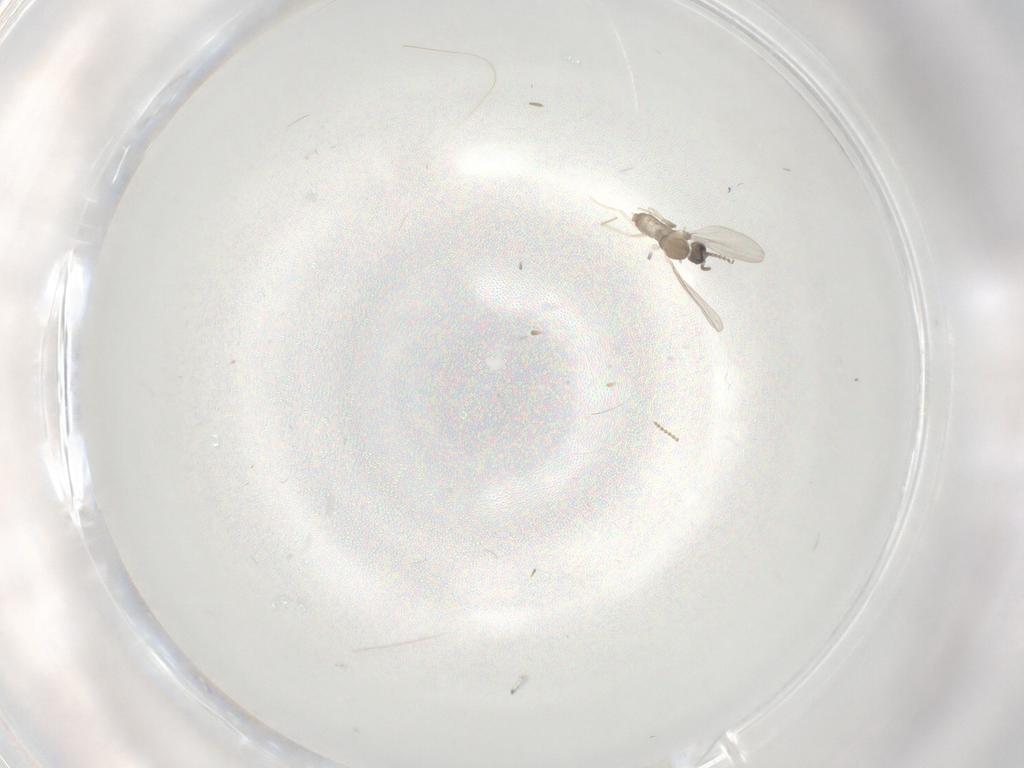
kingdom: Animalia
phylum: Arthropoda
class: Insecta
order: Diptera
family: Cecidomyiidae
